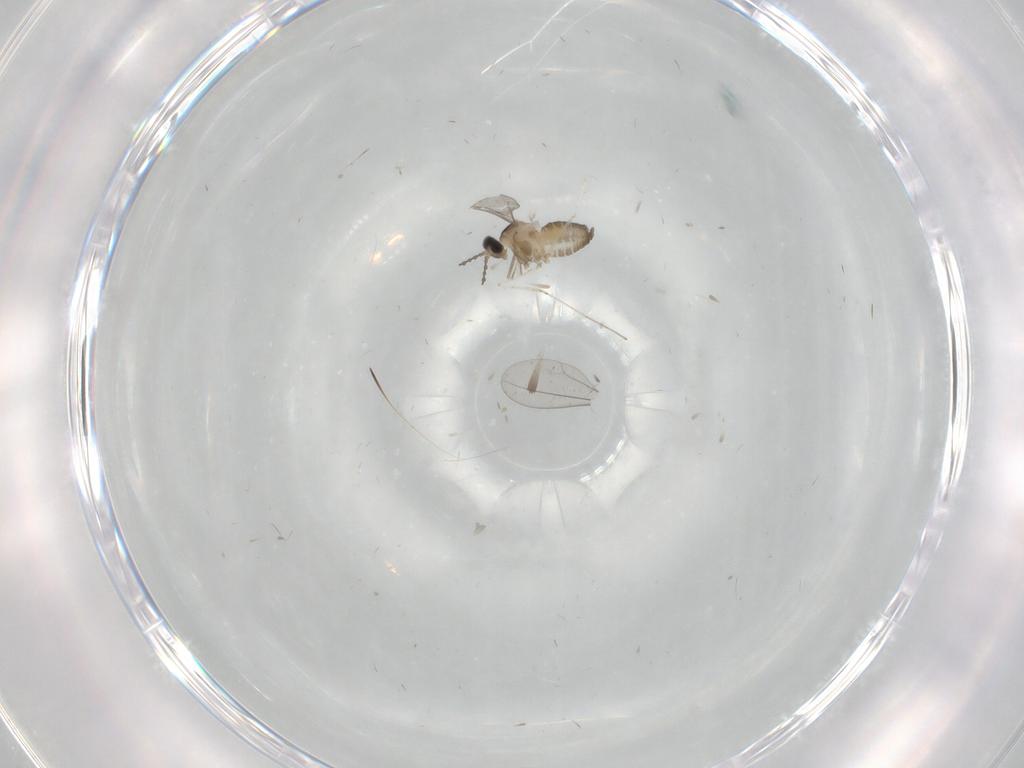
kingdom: Animalia
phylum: Arthropoda
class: Insecta
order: Diptera
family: Cecidomyiidae
